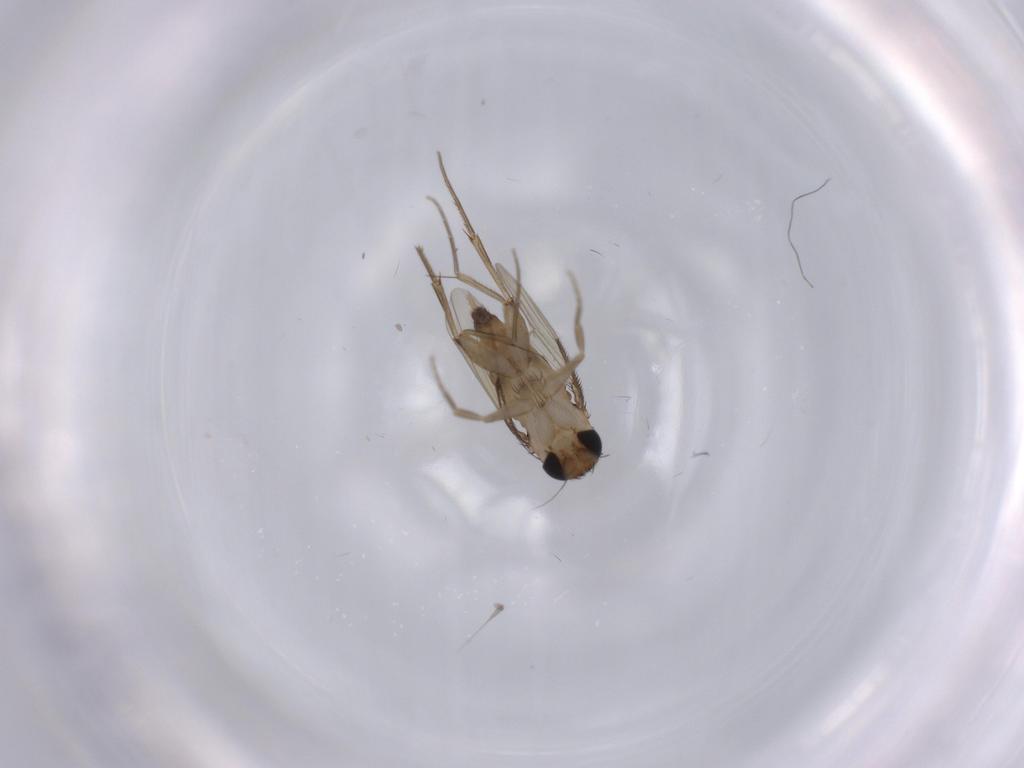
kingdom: Animalia
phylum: Arthropoda
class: Insecta
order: Diptera
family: Phoridae
